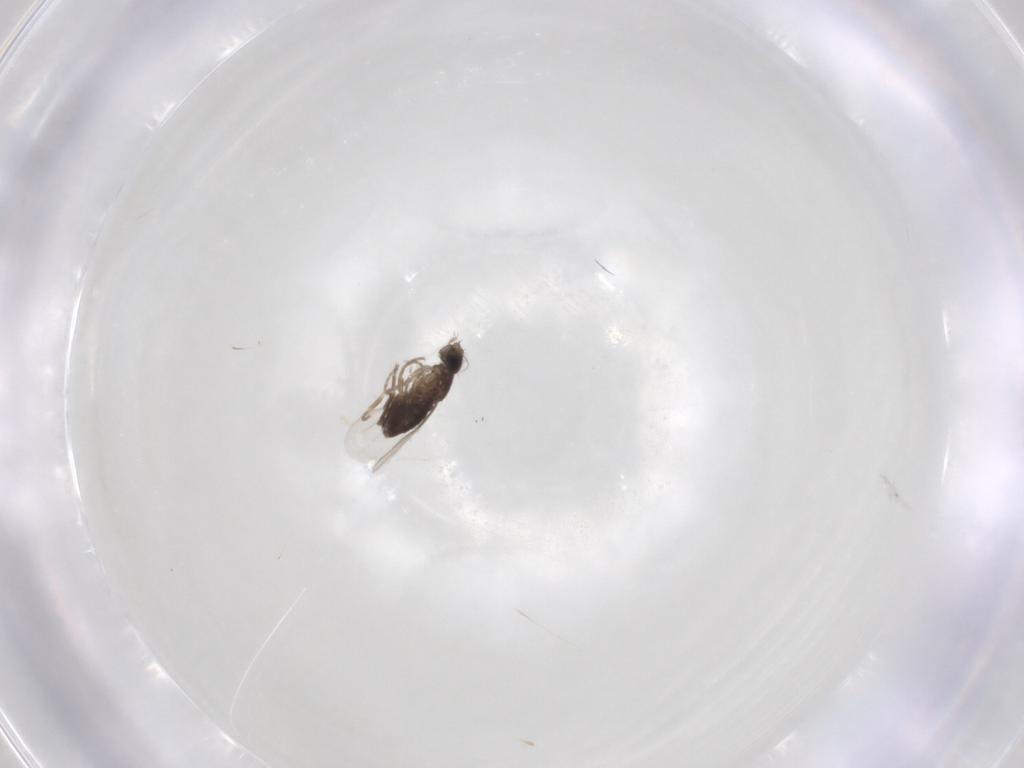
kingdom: Animalia
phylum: Arthropoda
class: Insecta
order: Diptera
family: Phoridae
